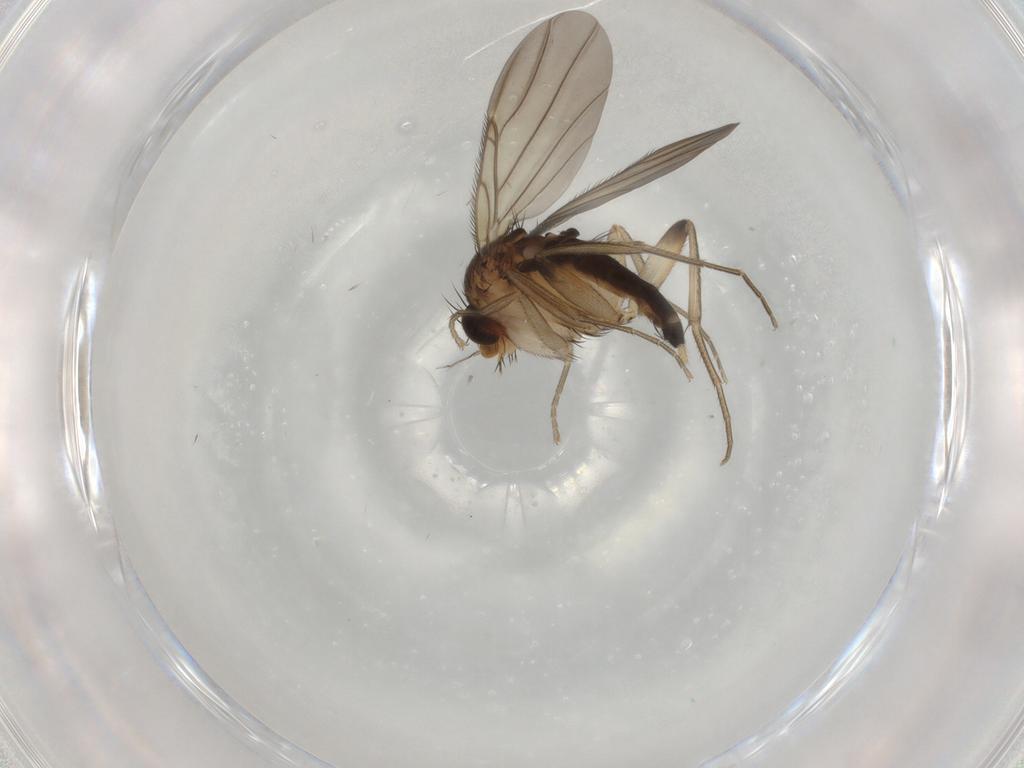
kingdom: Animalia
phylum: Arthropoda
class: Insecta
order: Diptera
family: Phoridae
